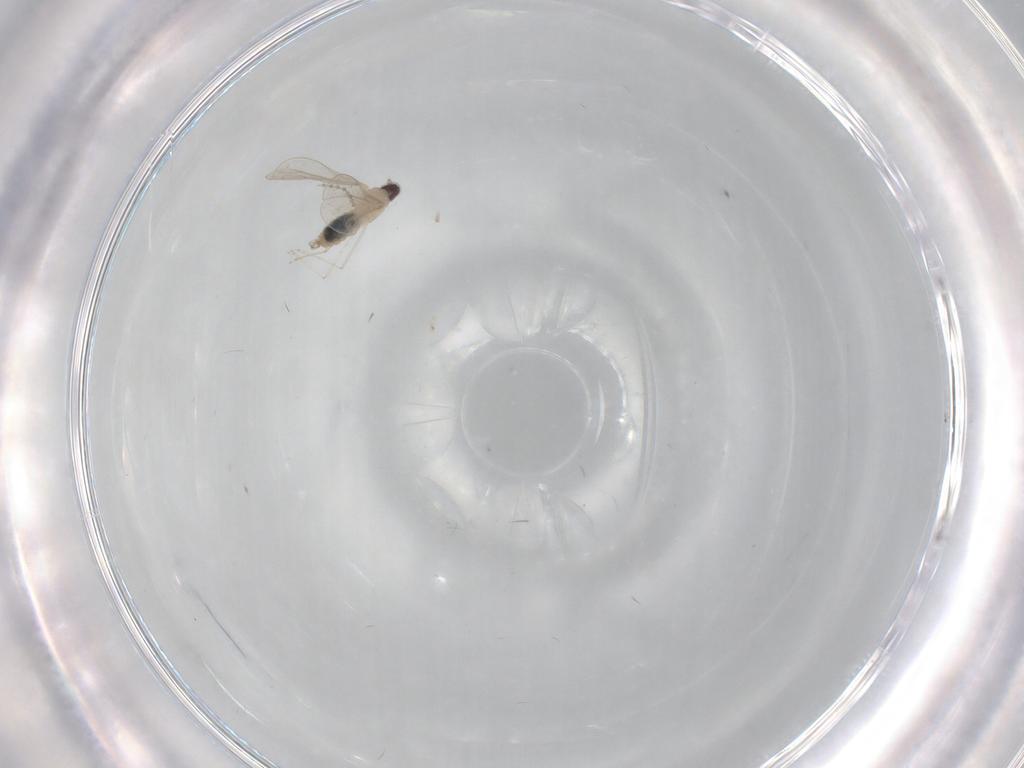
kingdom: Animalia
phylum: Arthropoda
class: Insecta
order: Diptera
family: Cecidomyiidae
